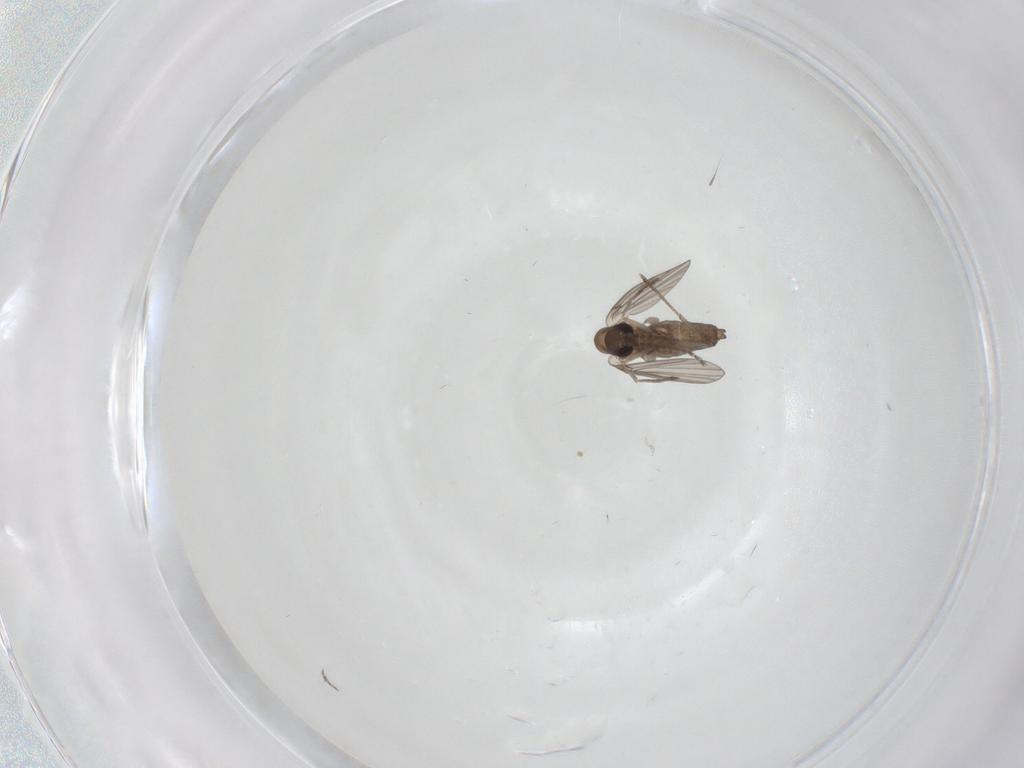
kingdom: Animalia
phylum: Arthropoda
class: Insecta
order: Diptera
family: Psychodidae
